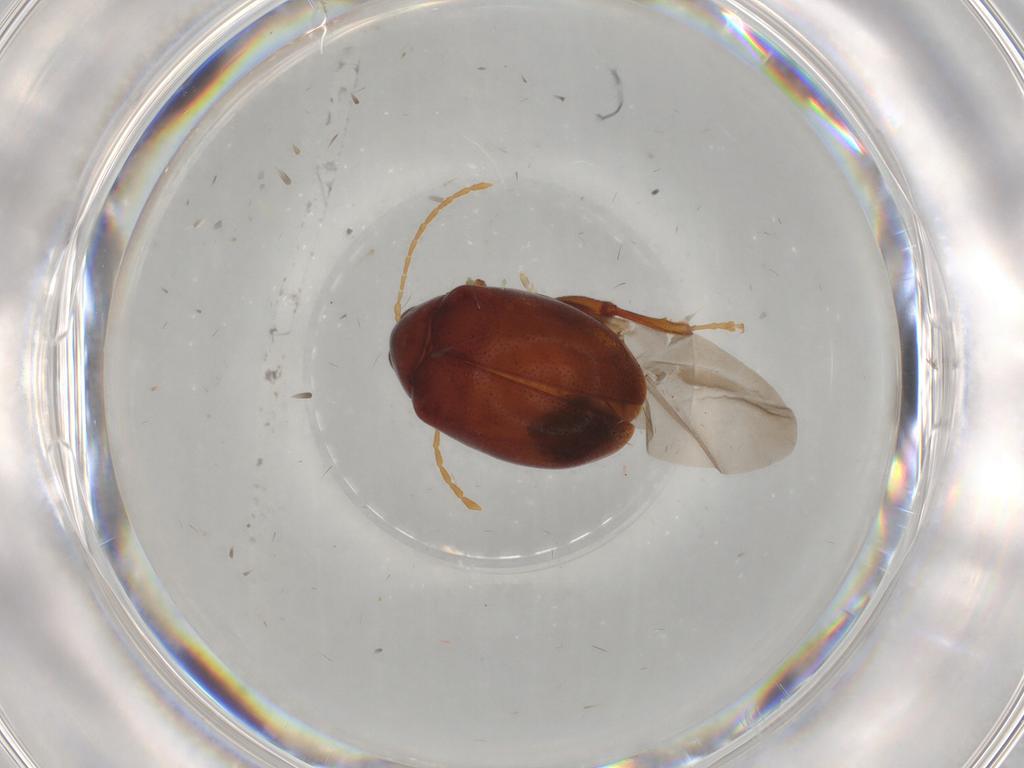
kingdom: Animalia
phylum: Arthropoda
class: Insecta
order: Coleoptera
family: Chrysomelidae
